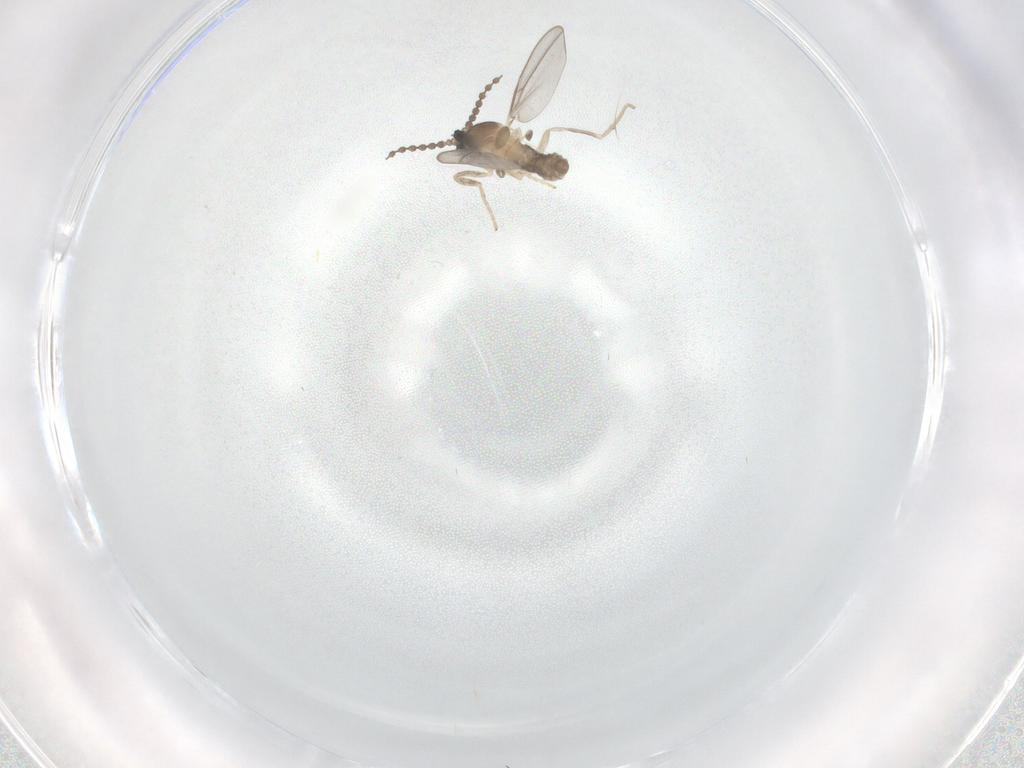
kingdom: Animalia
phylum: Arthropoda
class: Insecta
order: Diptera
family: Cecidomyiidae
